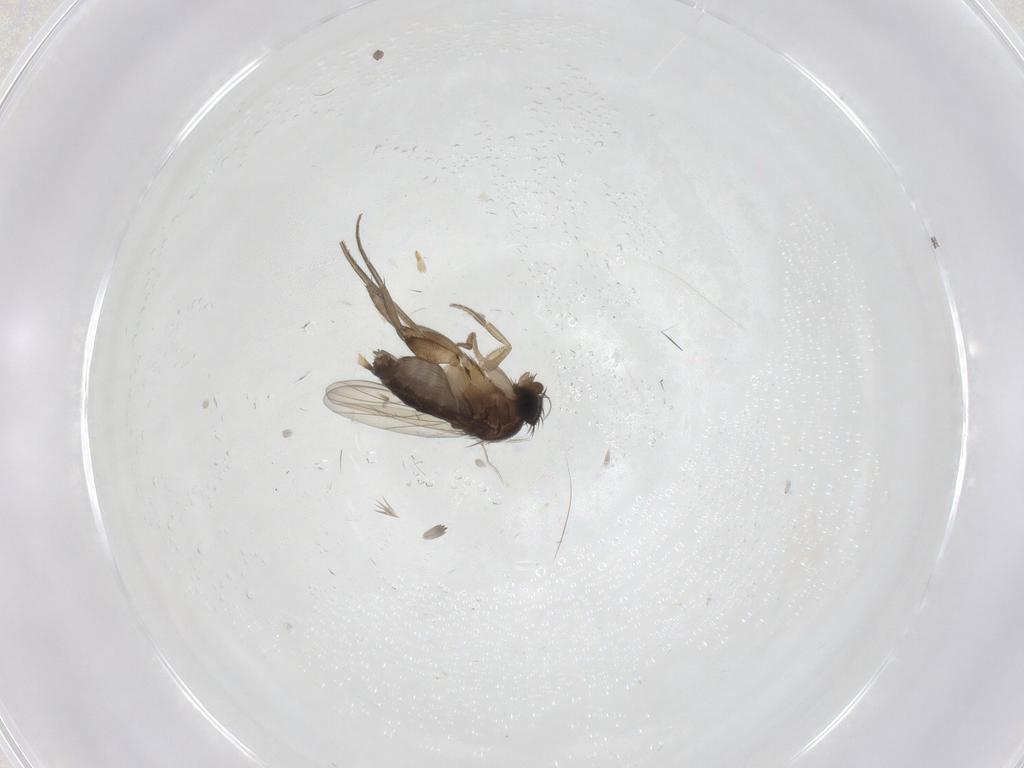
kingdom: Animalia
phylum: Arthropoda
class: Insecta
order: Diptera
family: Phoridae
